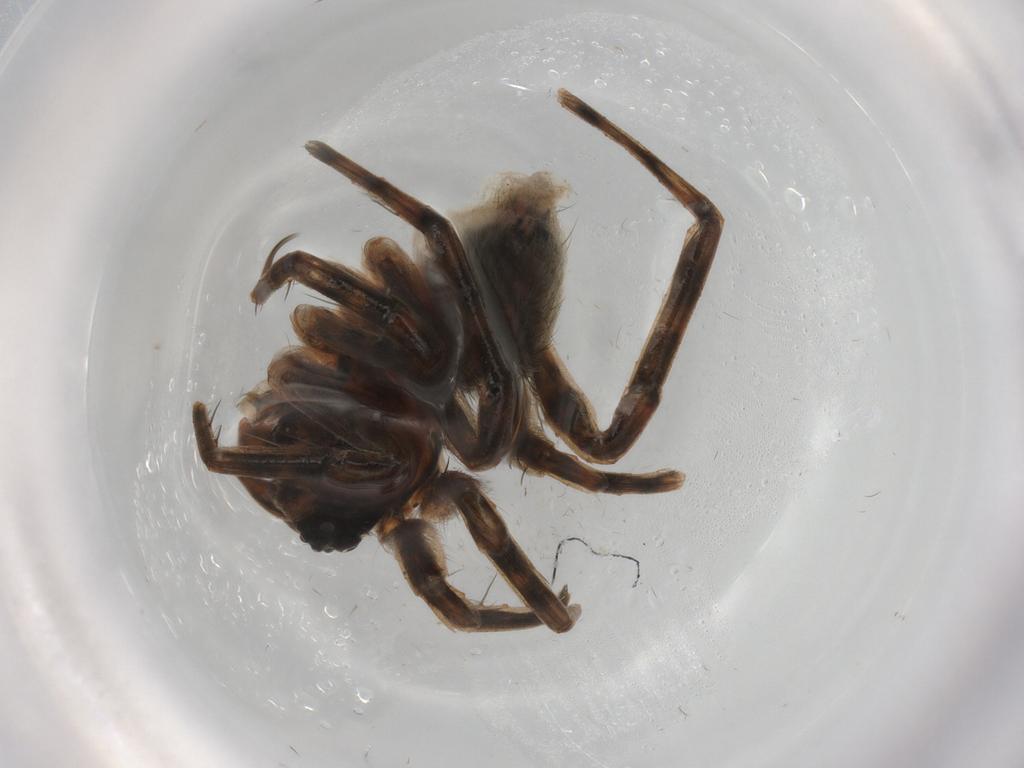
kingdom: Animalia
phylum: Arthropoda
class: Arachnida
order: Araneae
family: Lycosidae
